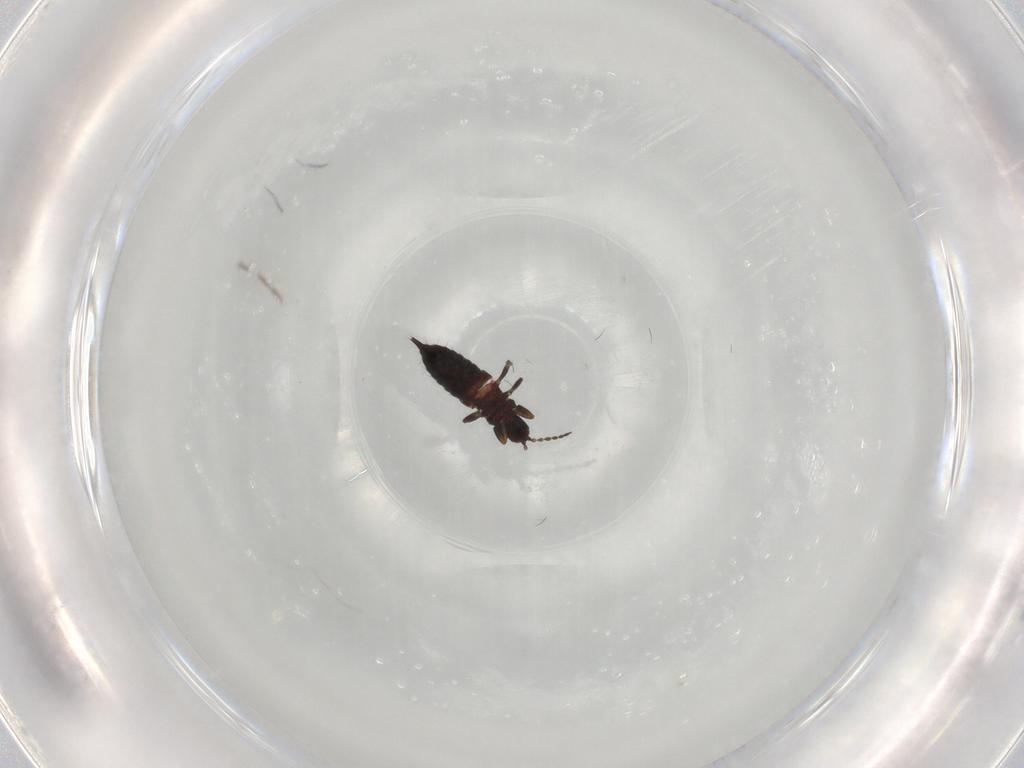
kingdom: Animalia
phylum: Arthropoda
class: Insecta
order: Thysanoptera
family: Phlaeothripidae
